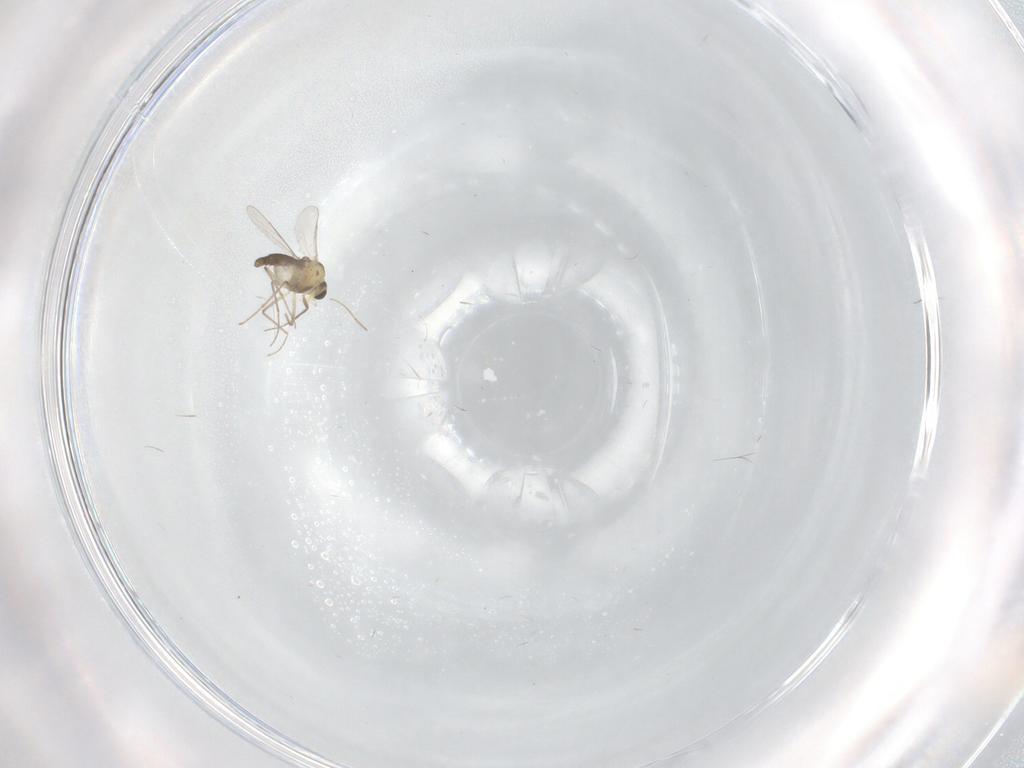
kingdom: Animalia
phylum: Arthropoda
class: Insecta
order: Diptera
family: Chironomidae
